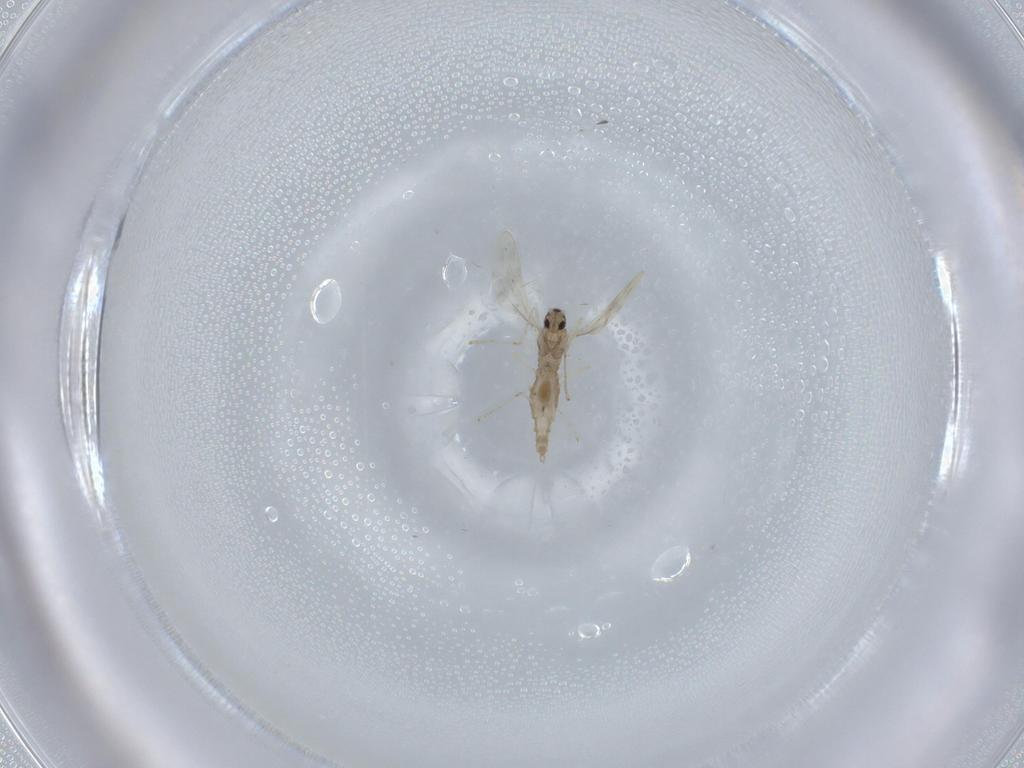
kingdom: Animalia
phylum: Arthropoda
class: Insecta
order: Diptera
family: Cecidomyiidae
